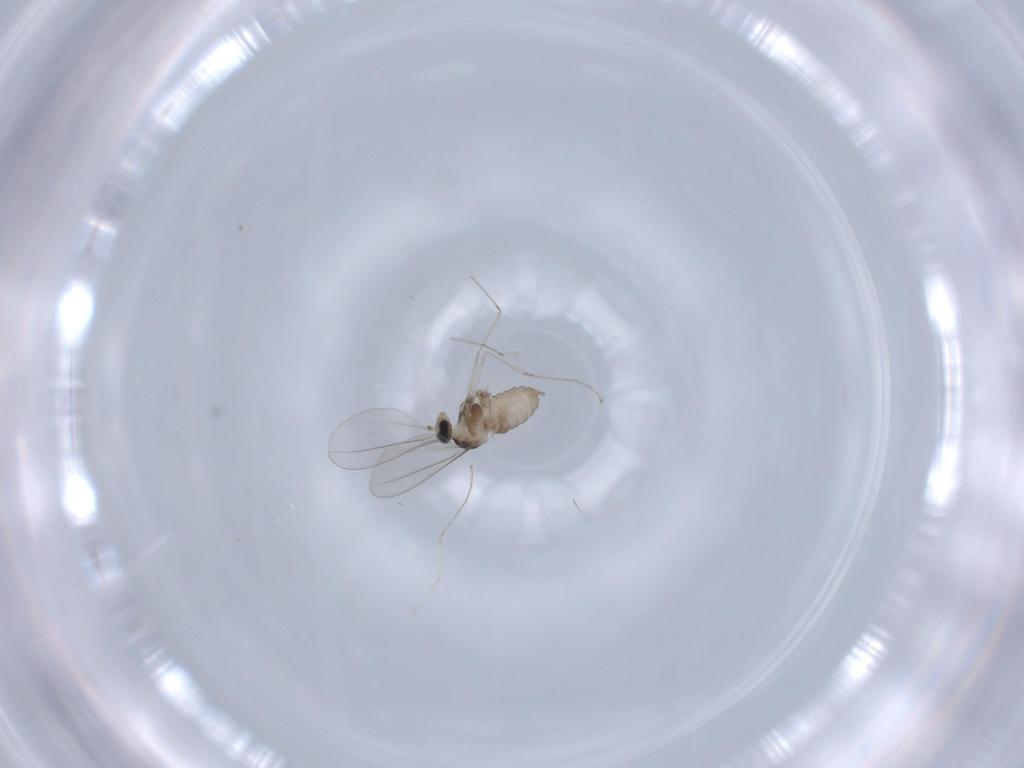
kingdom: Animalia
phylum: Arthropoda
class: Insecta
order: Diptera
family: Cecidomyiidae
